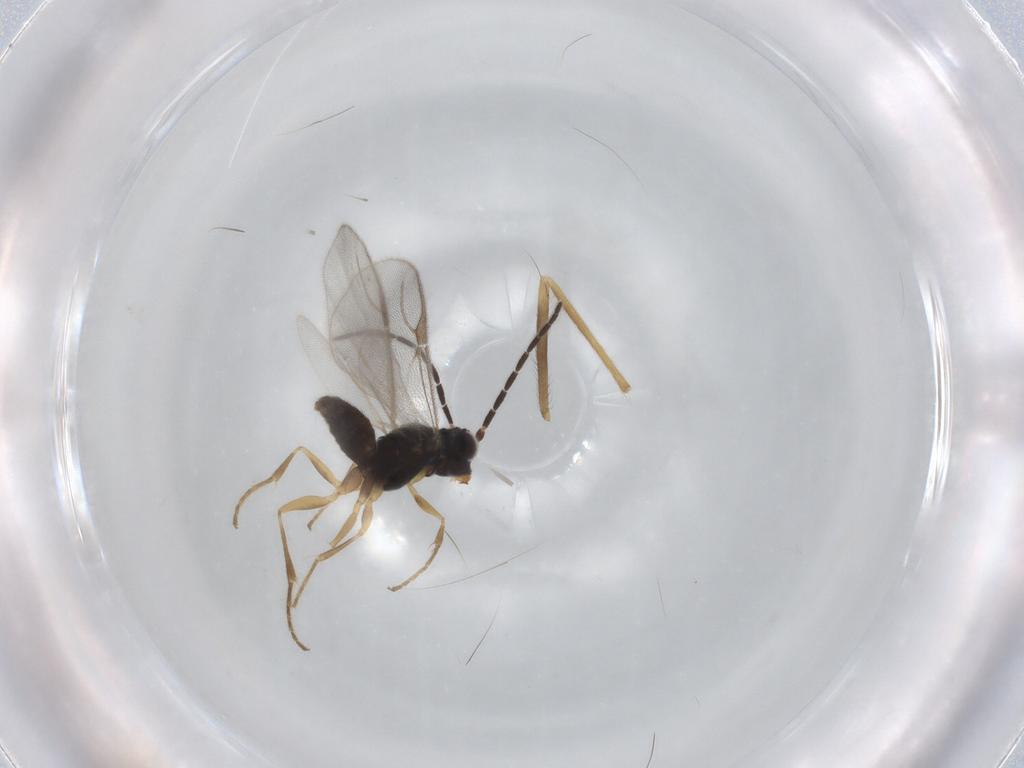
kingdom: Animalia
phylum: Arthropoda
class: Insecta
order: Hymenoptera
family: Dryinidae
